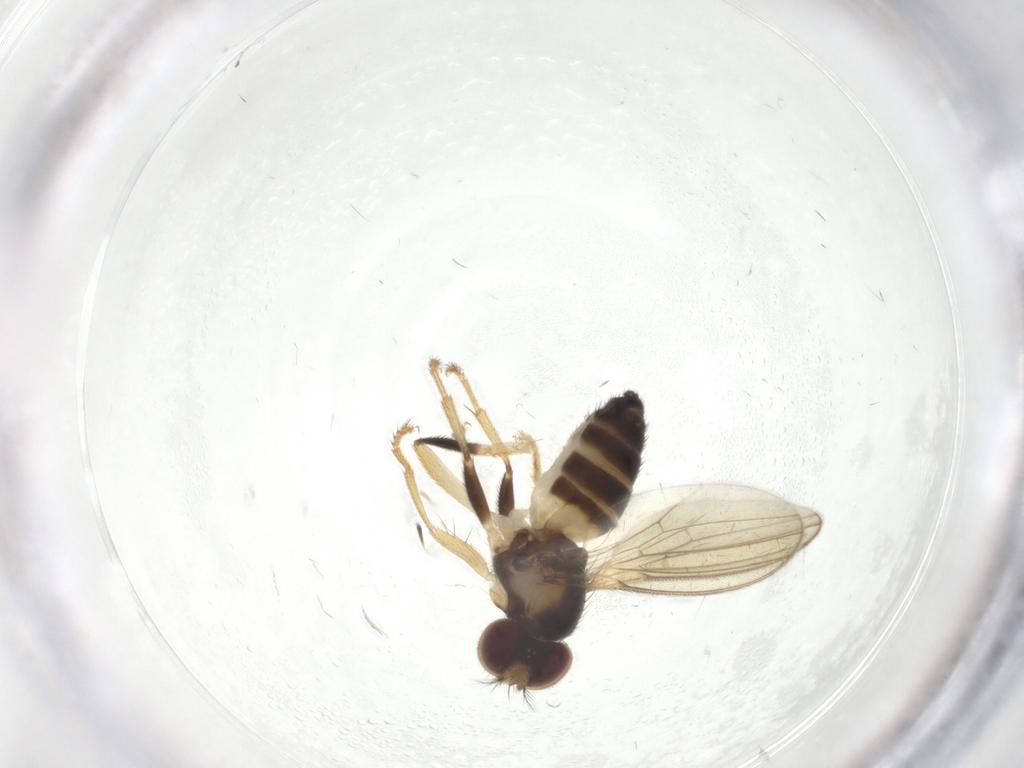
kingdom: Animalia
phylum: Arthropoda
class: Insecta
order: Diptera
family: Periscelididae
